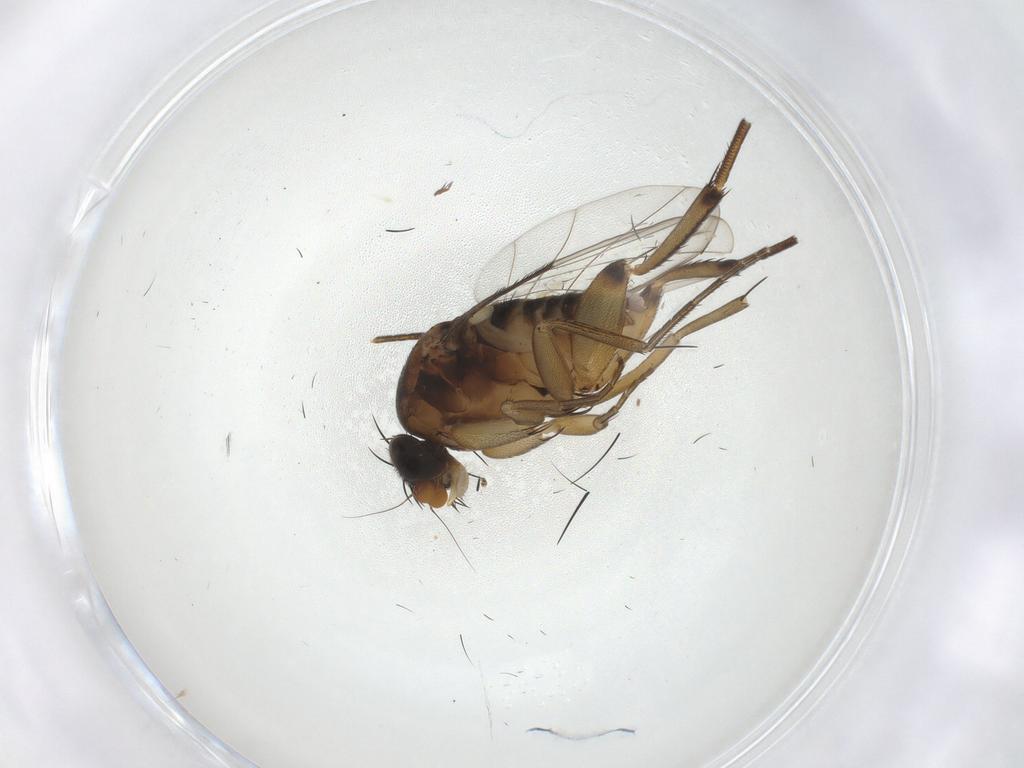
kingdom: Animalia
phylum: Arthropoda
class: Insecta
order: Diptera
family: Phoridae
